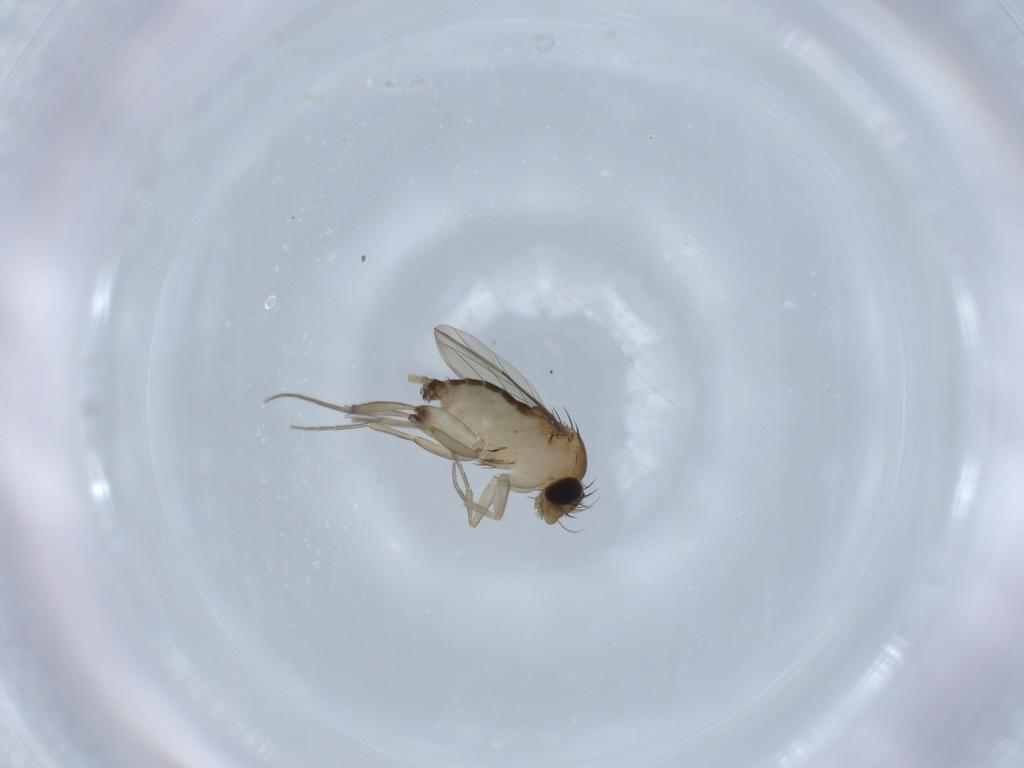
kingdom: Animalia
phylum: Arthropoda
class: Insecta
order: Diptera
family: Phoridae
